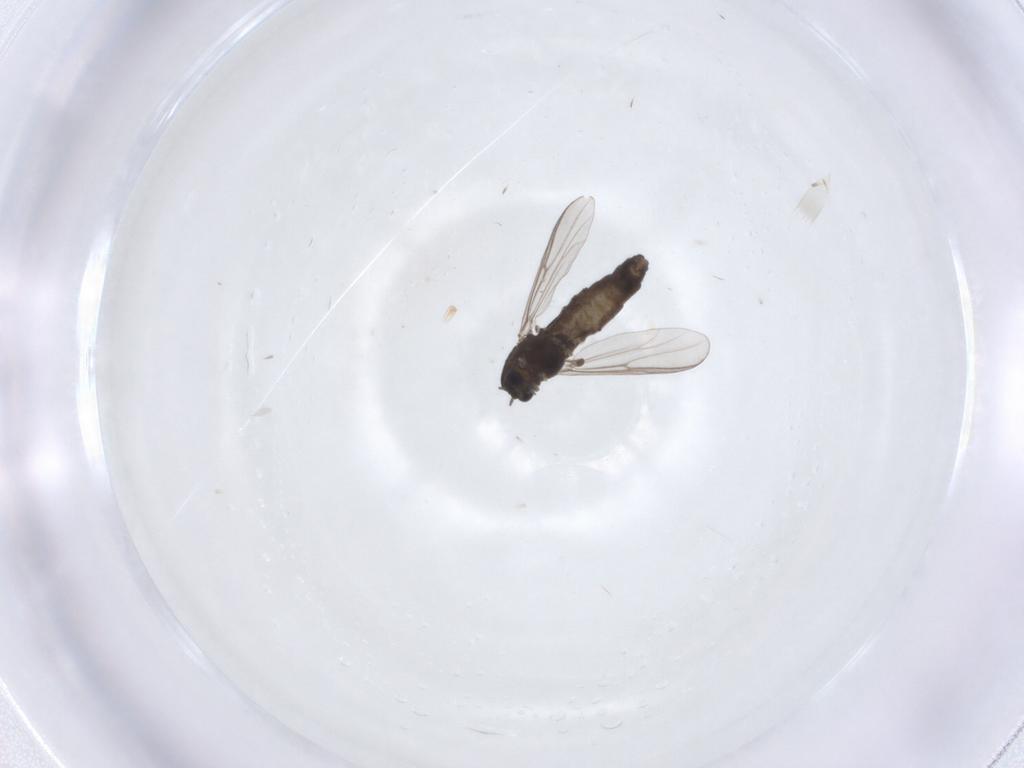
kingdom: Animalia
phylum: Arthropoda
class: Insecta
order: Diptera
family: Chironomidae
